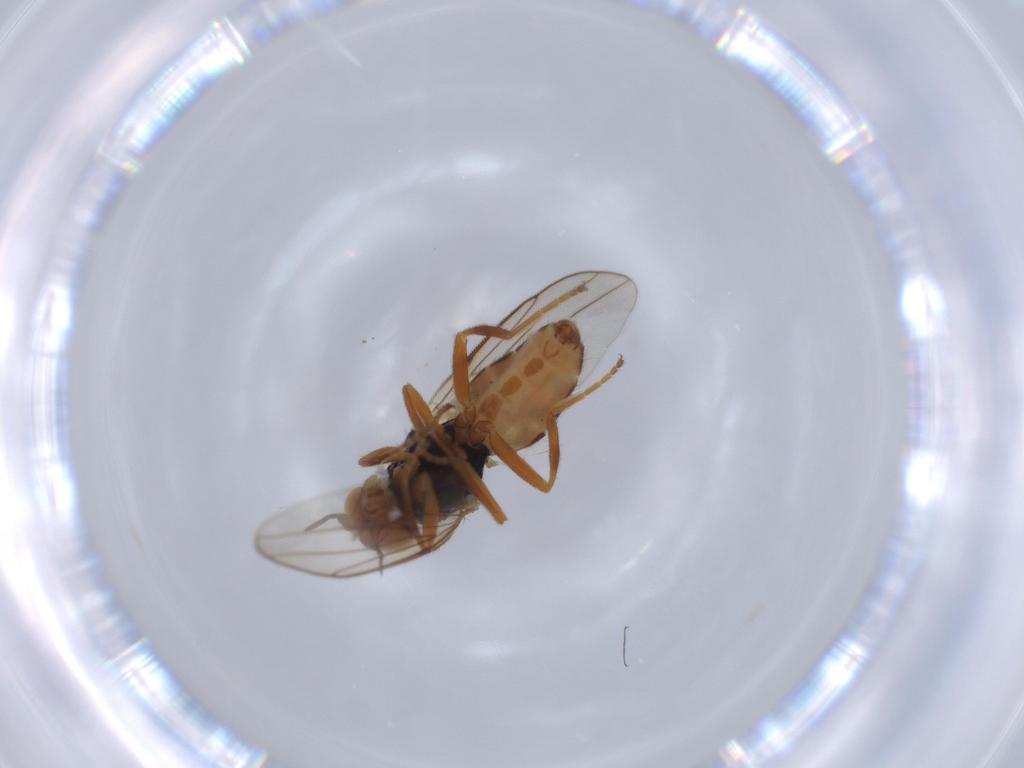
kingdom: Animalia
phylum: Arthropoda
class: Insecta
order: Diptera
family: Chloropidae
